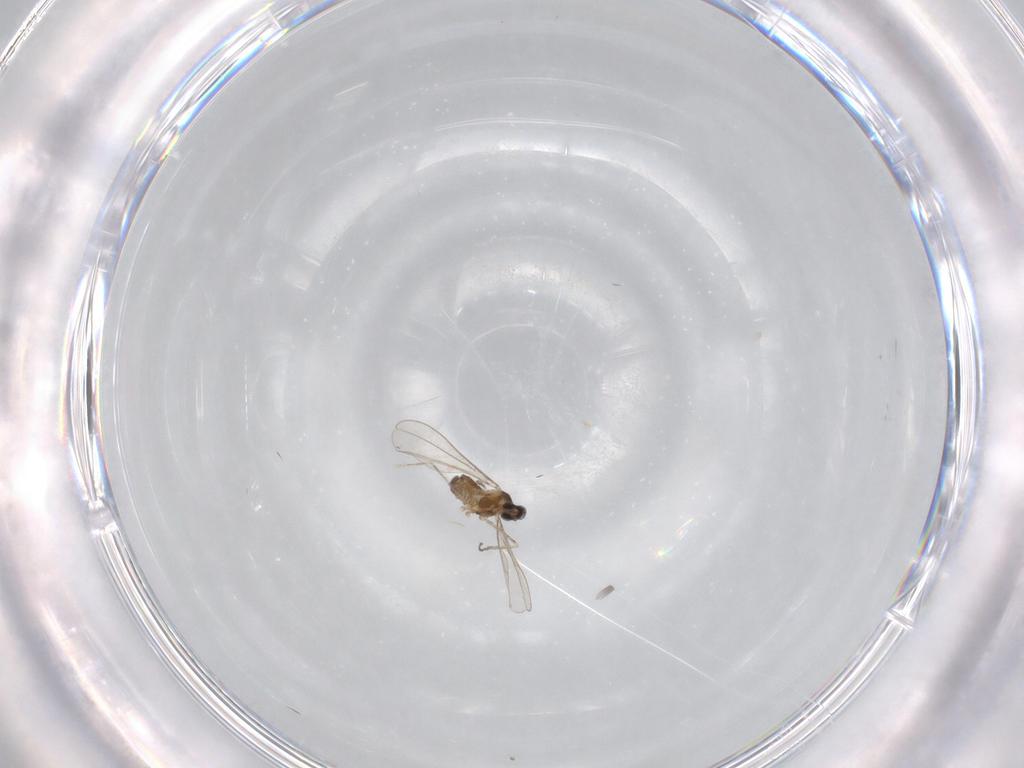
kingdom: Animalia
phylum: Arthropoda
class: Insecta
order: Diptera
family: Cecidomyiidae
